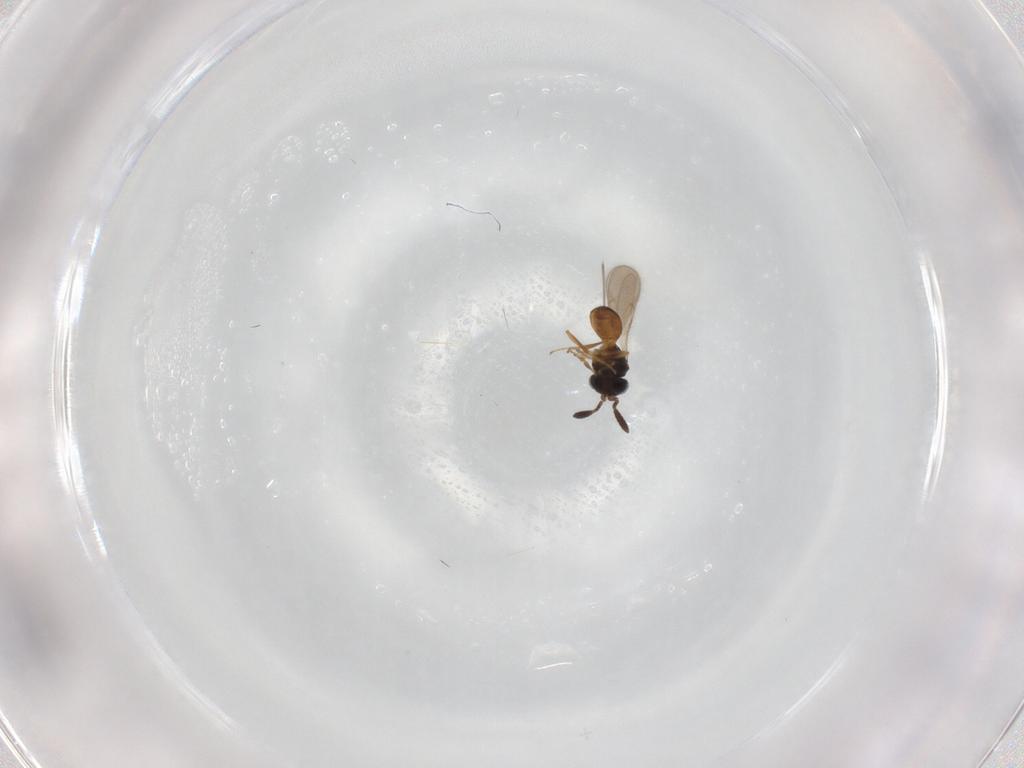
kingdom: Animalia
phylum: Arthropoda
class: Insecta
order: Hymenoptera
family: Scelionidae
